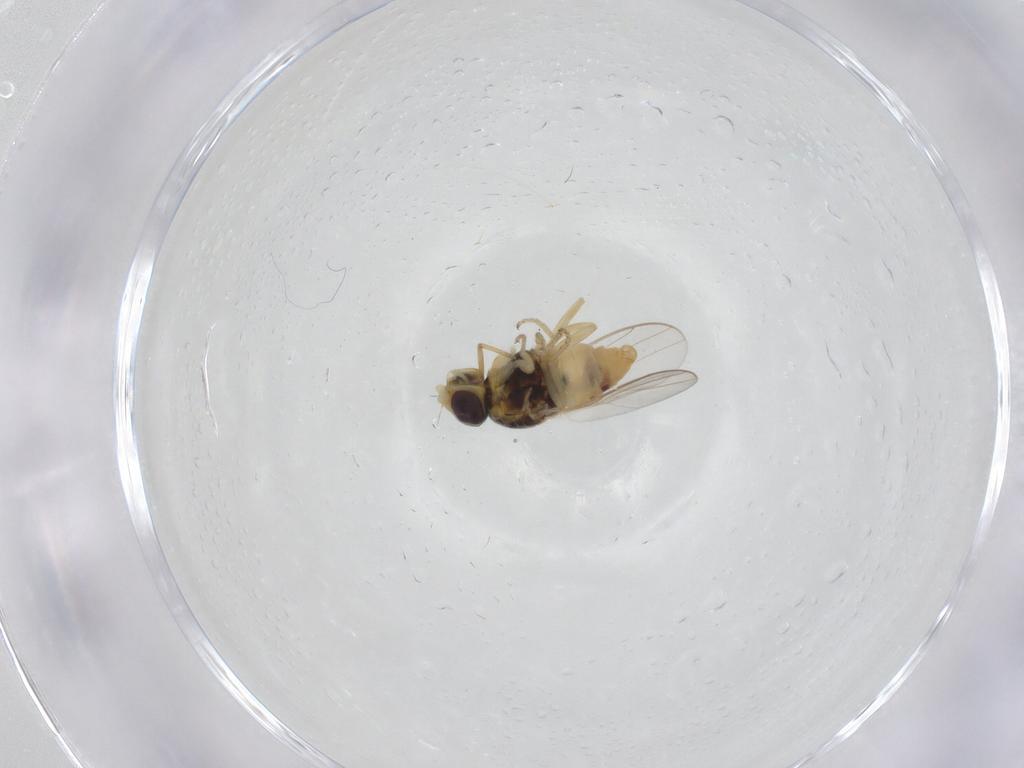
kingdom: Animalia
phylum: Arthropoda
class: Insecta
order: Diptera
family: Chloropidae
